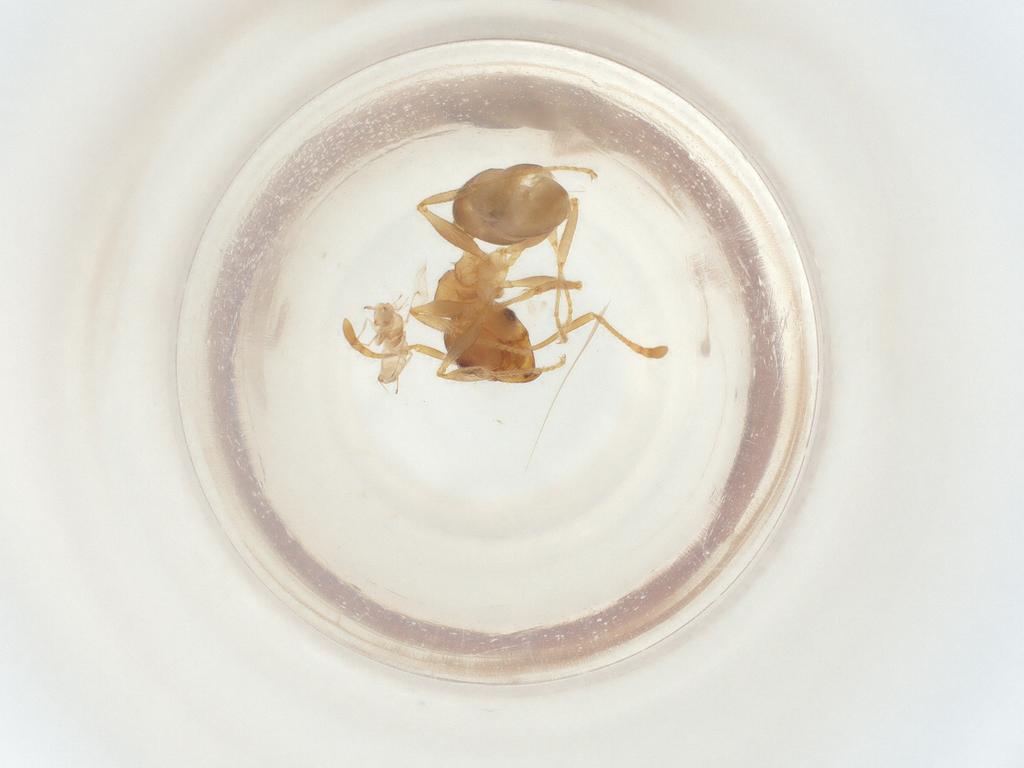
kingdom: Animalia
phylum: Arthropoda
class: Insecta
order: Hymenoptera
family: Formicidae
